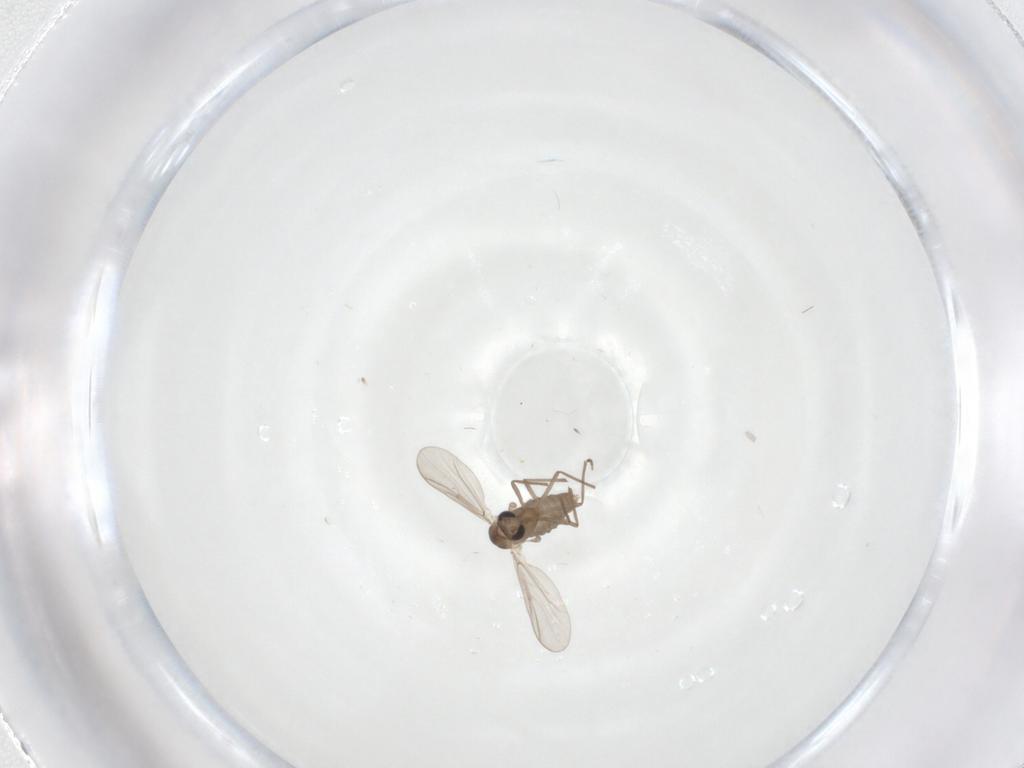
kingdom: Animalia
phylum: Arthropoda
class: Insecta
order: Diptera
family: Chironomidae
